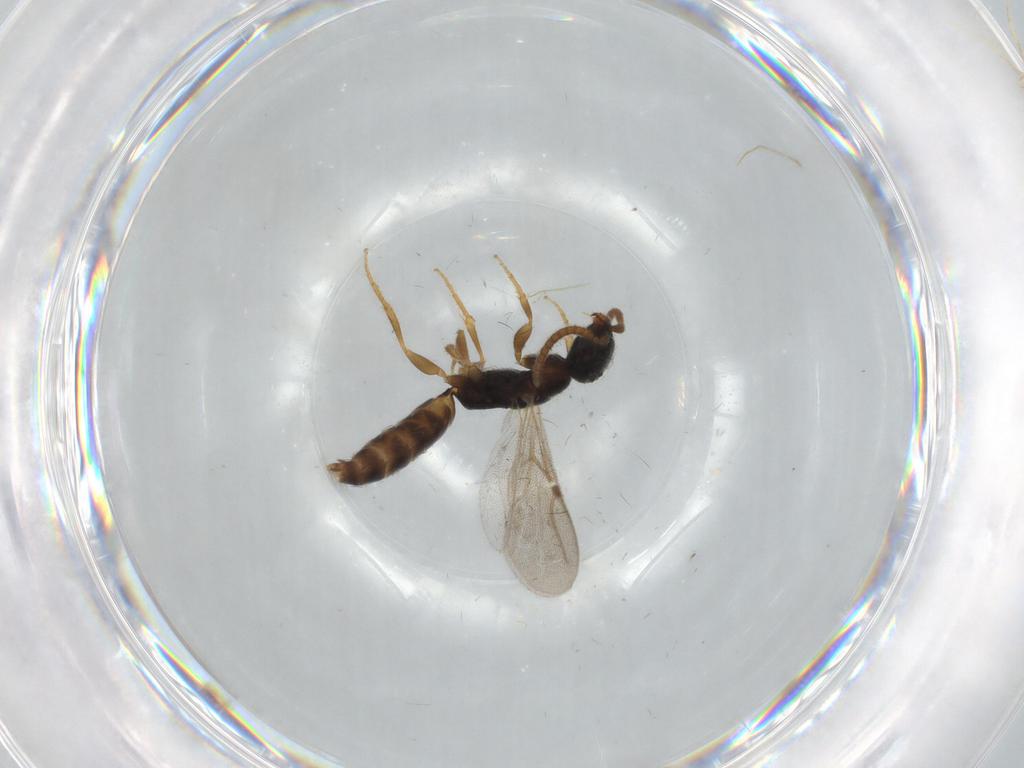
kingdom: Animalia
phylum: Arthropoda
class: Insecta
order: Hymenoptera
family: Bethylidae
